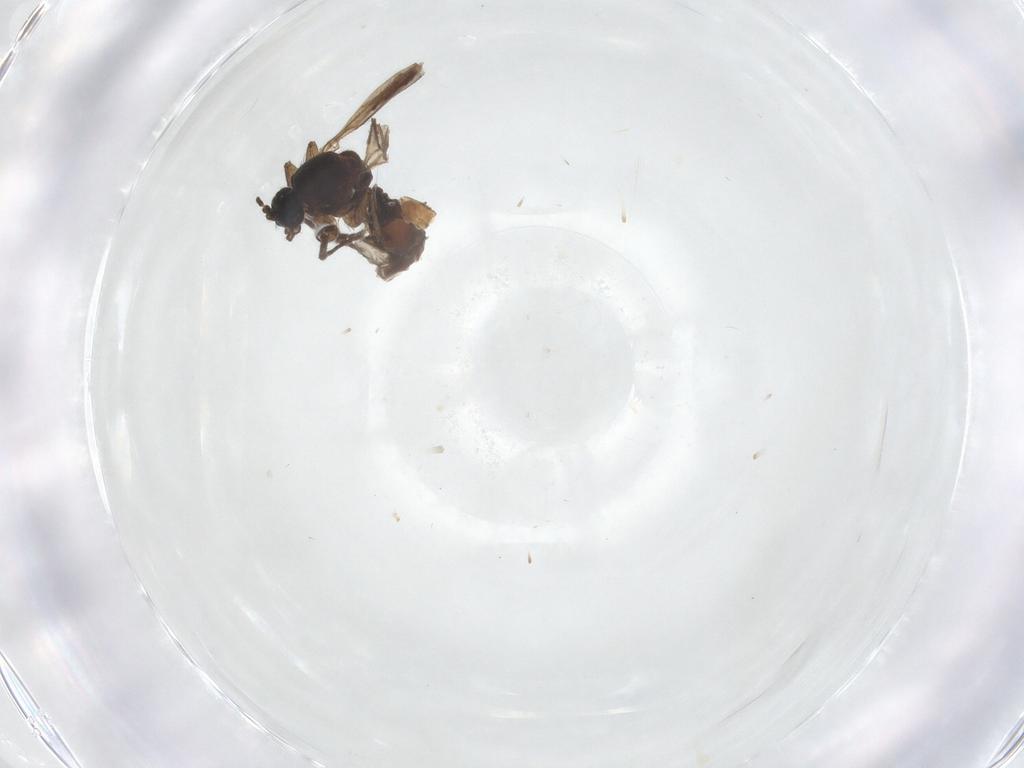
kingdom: Animalia
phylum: Arthropoda
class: Insecta
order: Diptera
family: Sciaridae
